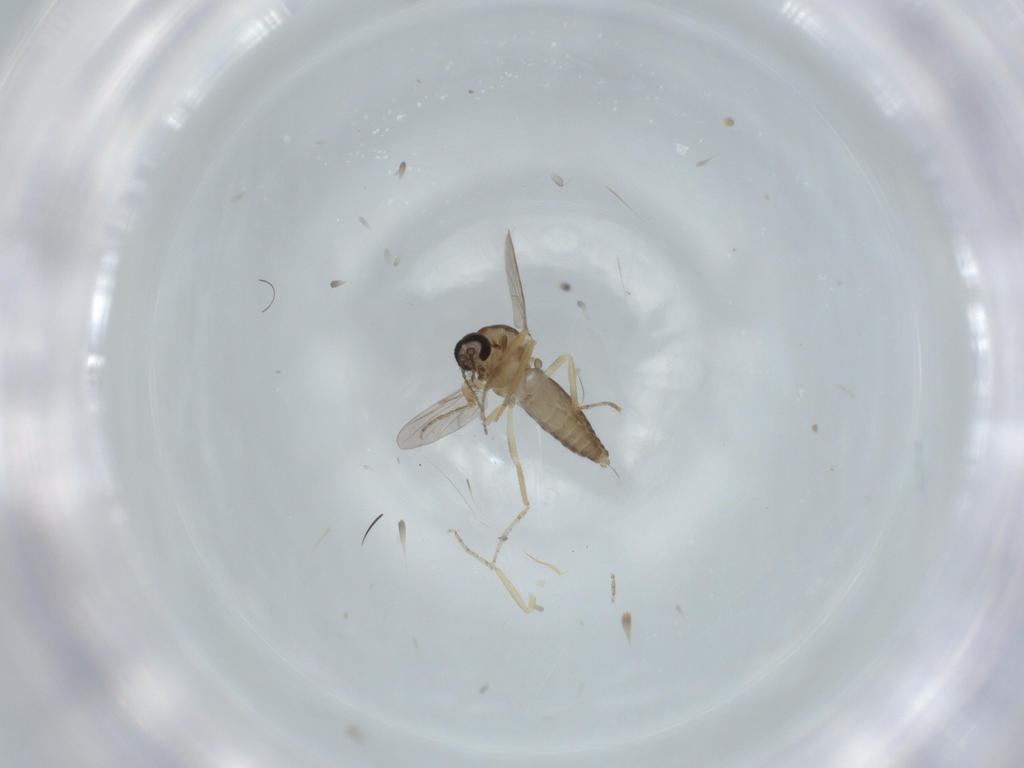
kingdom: Animalia
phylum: Arthropoda
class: Insecta
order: Diptera
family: Ceratopogonidae
